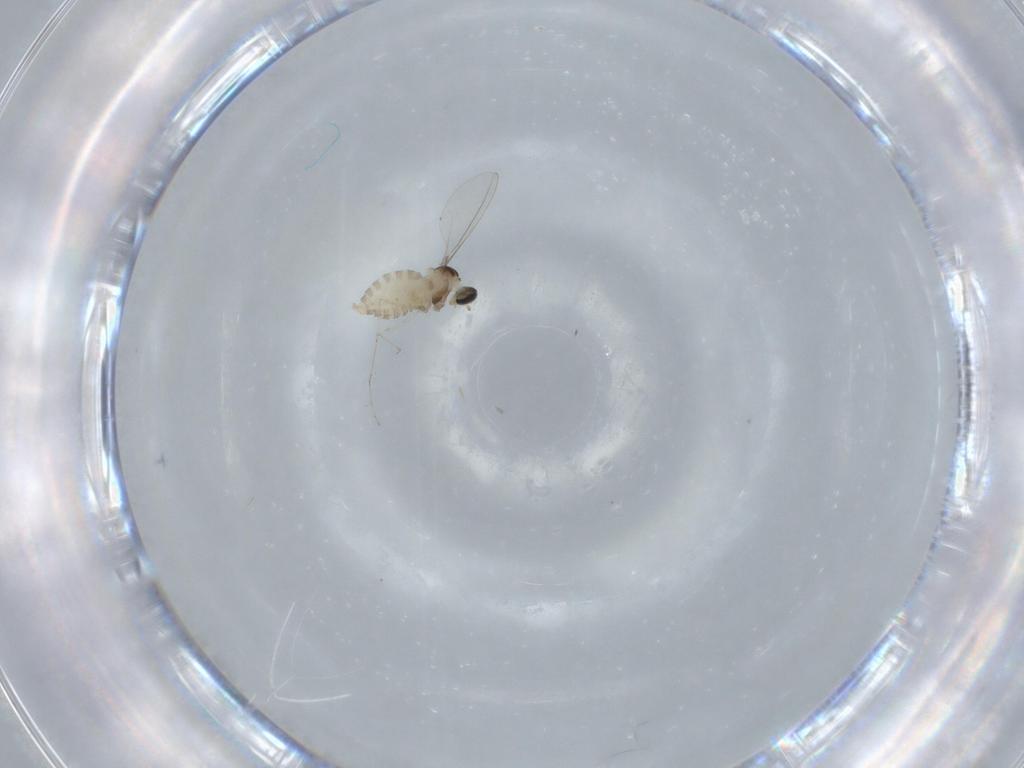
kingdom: Animalia
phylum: Arthropoda
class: Insecta
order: Diptera
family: Cecidomyiidae
